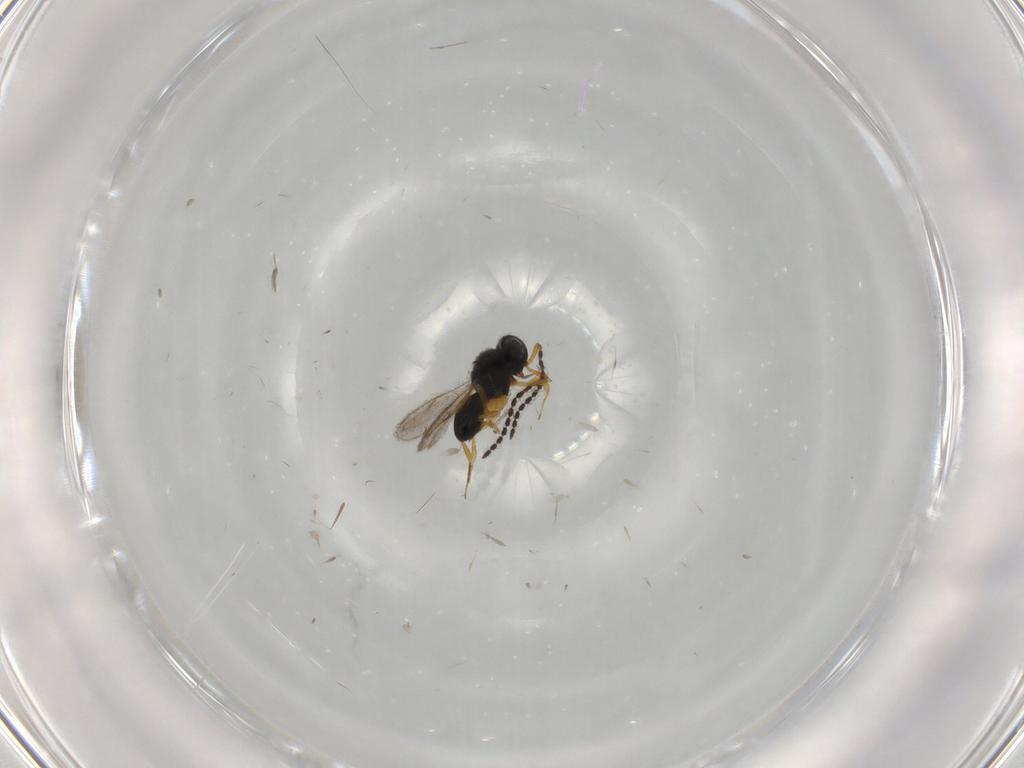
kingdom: Animalia
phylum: Arthropoda
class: Insecta
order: Hymenoptera
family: Scelionidae
